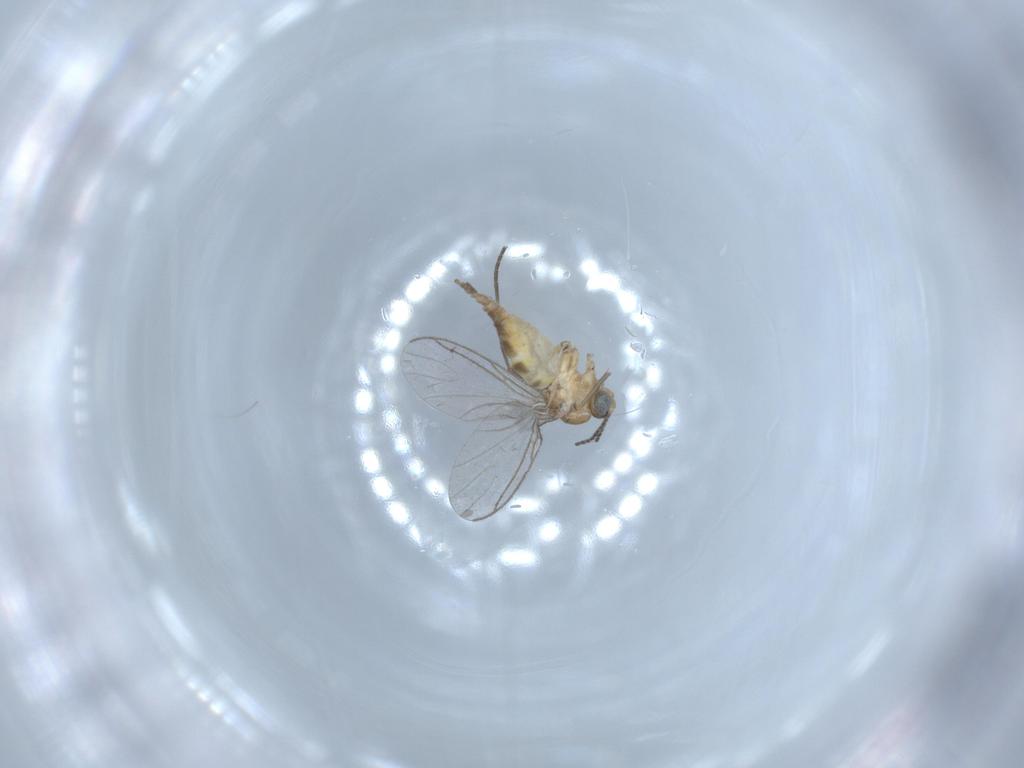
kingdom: Animalia
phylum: Arthropoda
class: Insecta
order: Diptera
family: Sciaridae
